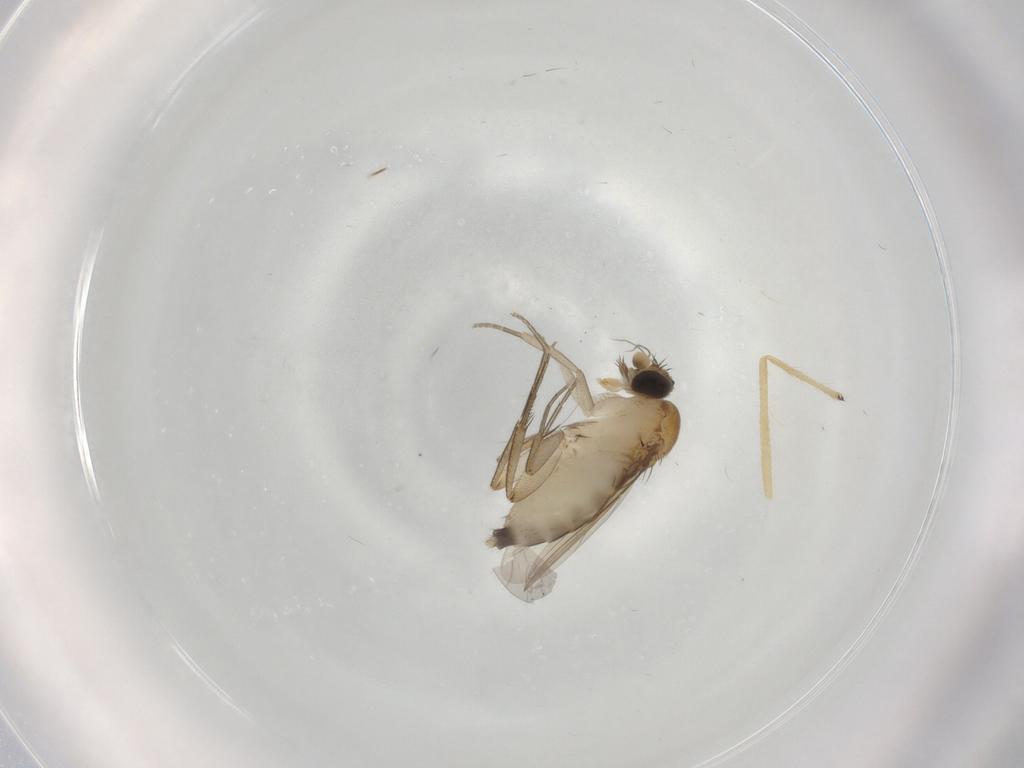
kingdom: Animalia
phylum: Arthropoda
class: Insecta
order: Diptera
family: Phoridae
